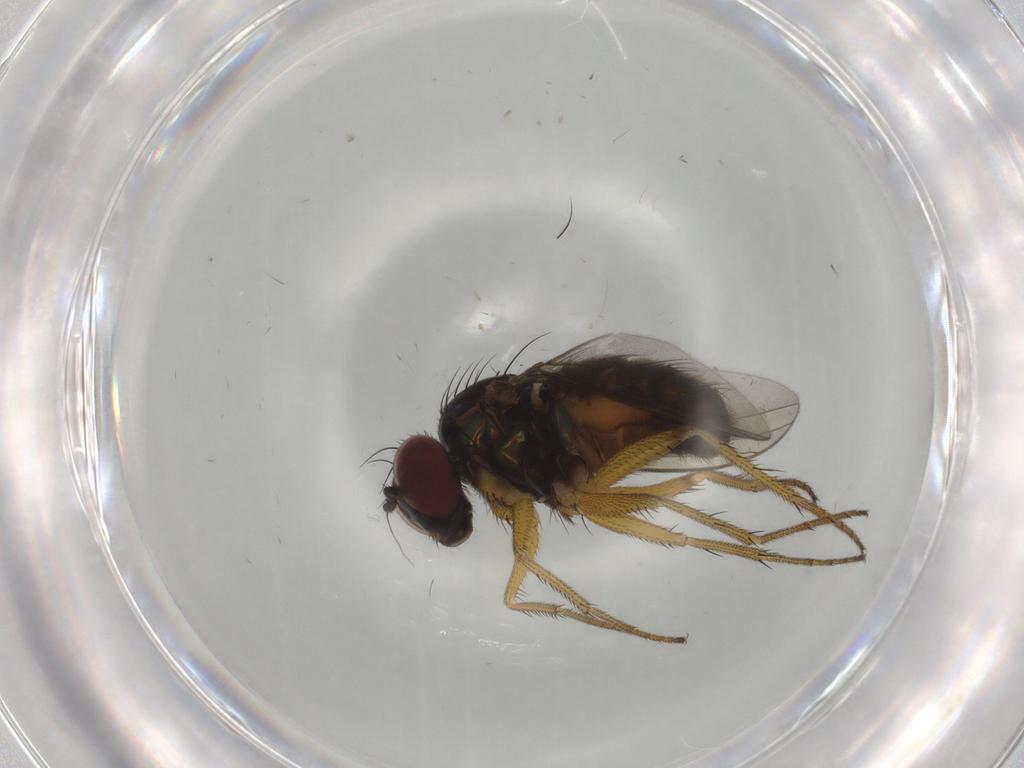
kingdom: Animalia
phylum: Arthropoda
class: Insecta
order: Diptera
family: Dolichopodidae
